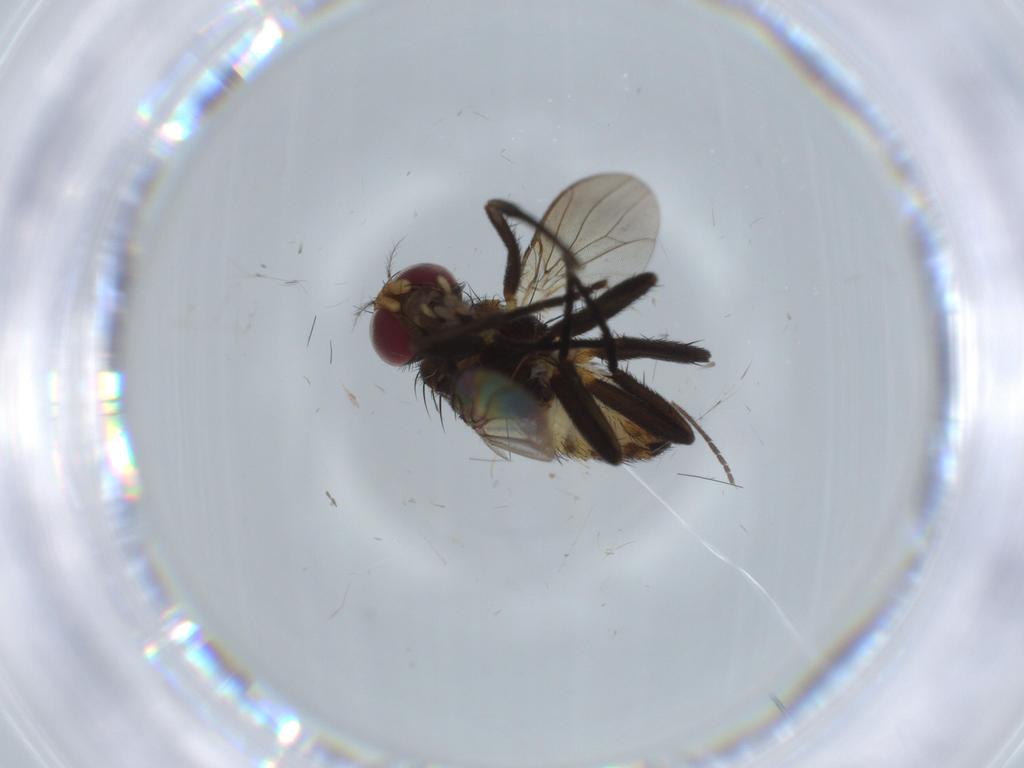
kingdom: Animalia
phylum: Arthropoda
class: Insecta
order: Diptera
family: Anthomyiidae
